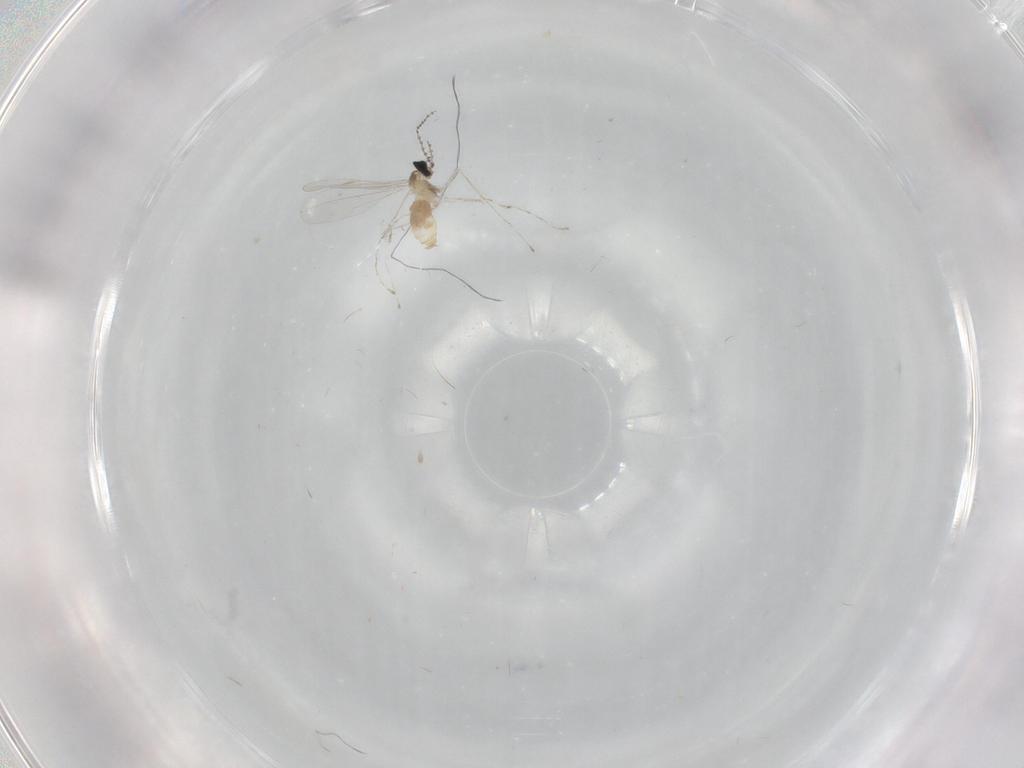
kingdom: Animalia
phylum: Arthropoda
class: Insecta
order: Diptera
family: Cecidomyiidae
